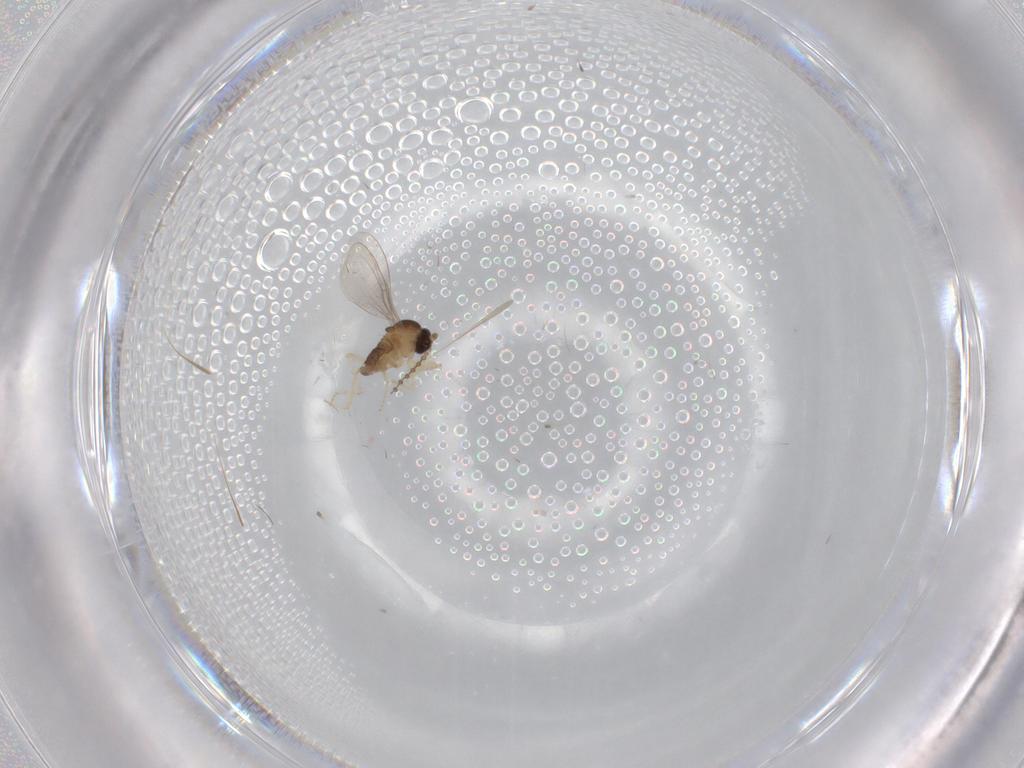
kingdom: Animalia
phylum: Arthropoda
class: Insecta
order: Diptera
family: Cecidomyiidae
